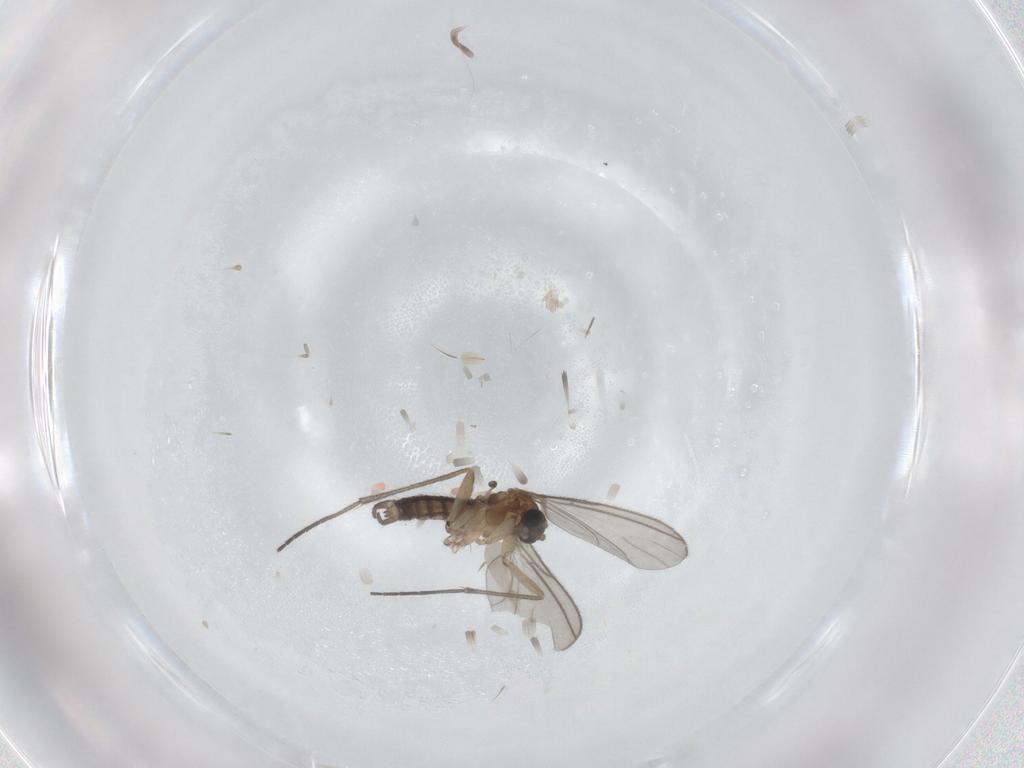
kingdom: Animalia
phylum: Arthropoda
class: Insecta
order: Diptera
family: Sciaridae
